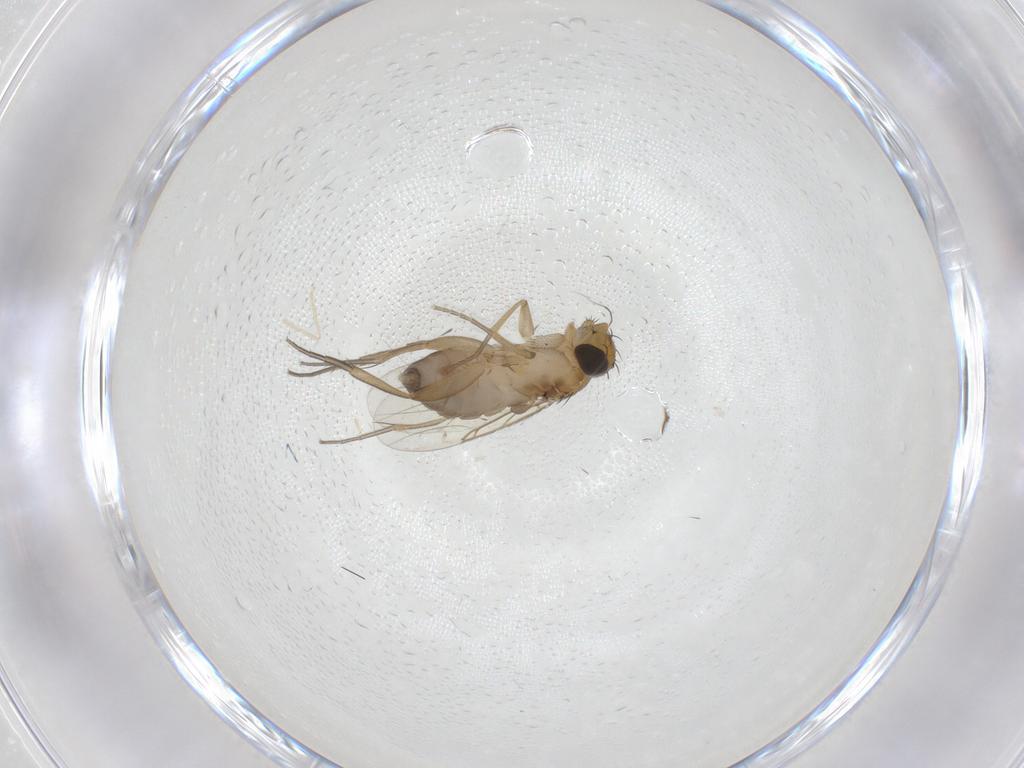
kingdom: Animalia
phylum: Arthropoda
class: Insecta
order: Diptera
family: Phoridae
